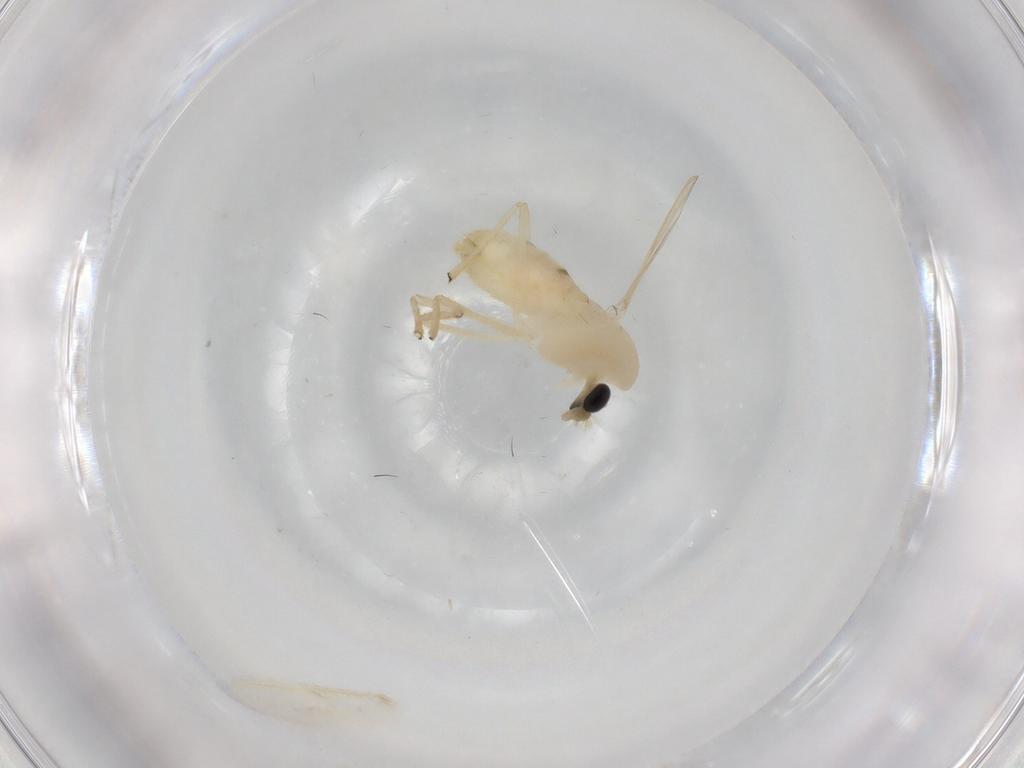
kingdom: Animalia
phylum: Arthropoda
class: Insecta
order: Diptera
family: Chironomidae
